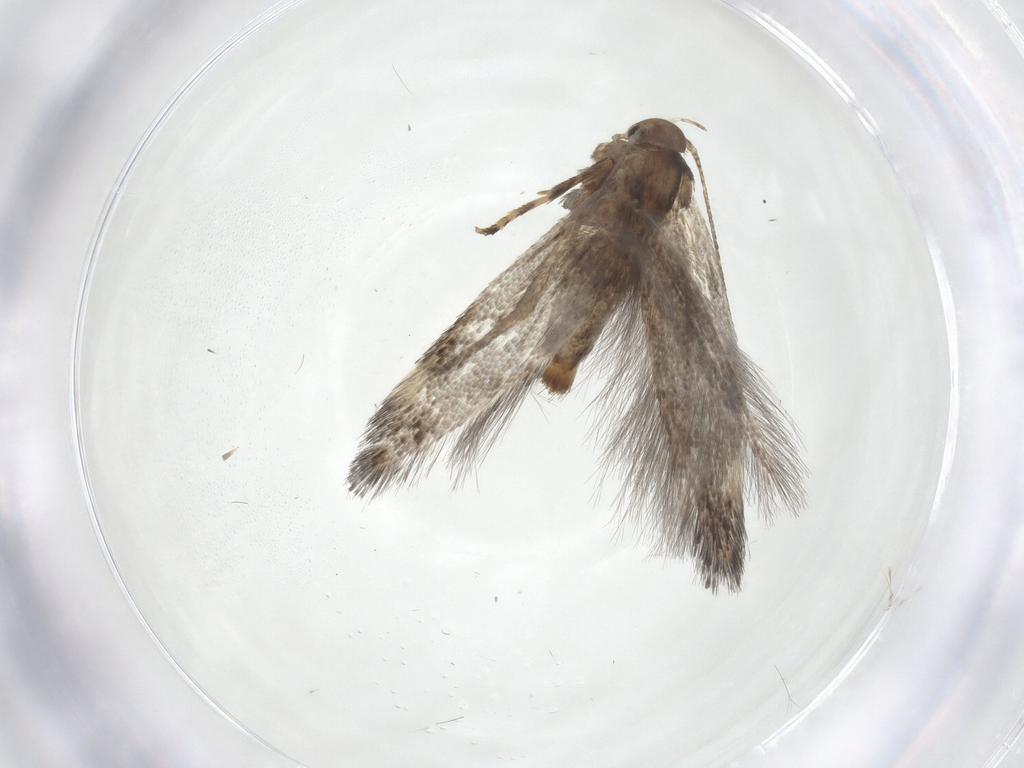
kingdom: Animalia
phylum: Arthropoda
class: Insecta
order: Lepidoptera
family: Elachistidae
